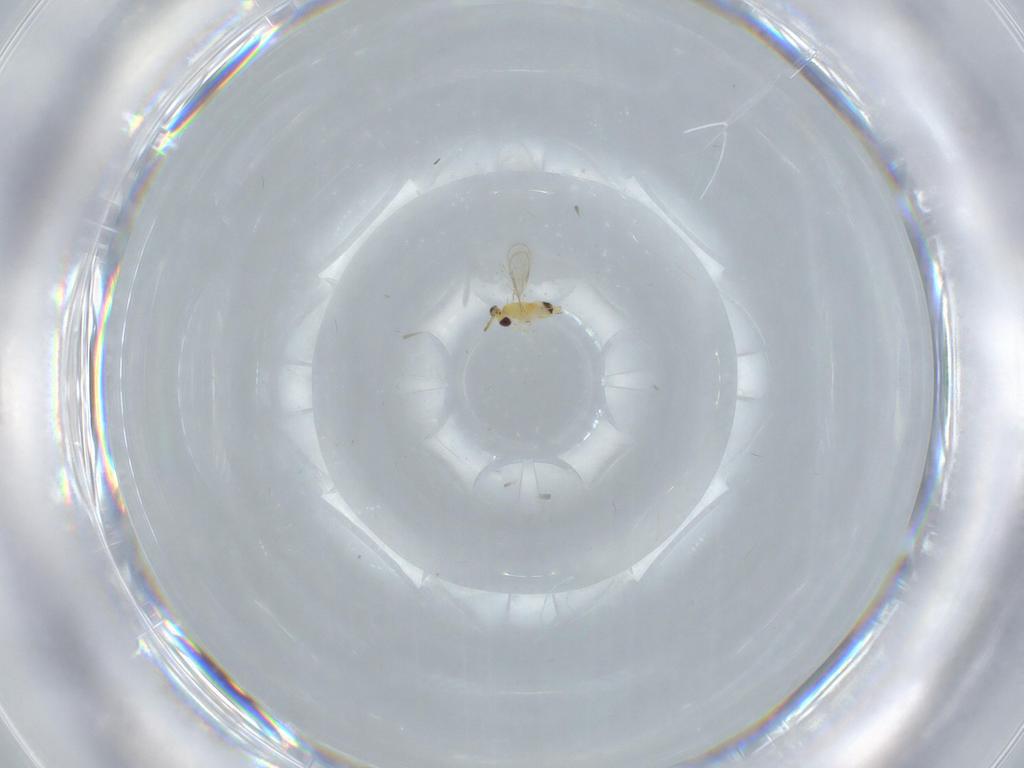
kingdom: Animalia
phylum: Arthropoda
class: Insecta
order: Hymenoptera
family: Aphelinidae
